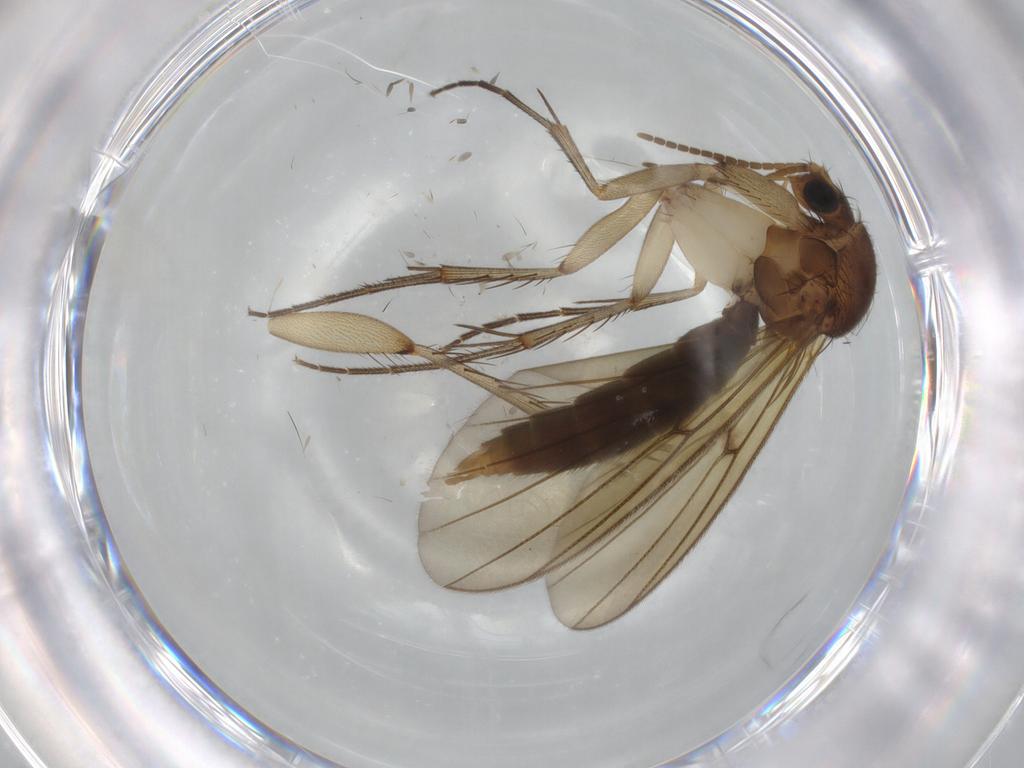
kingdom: Animalia
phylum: Arthropoda
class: Insecta
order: Diptera
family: Mycetophilidae
